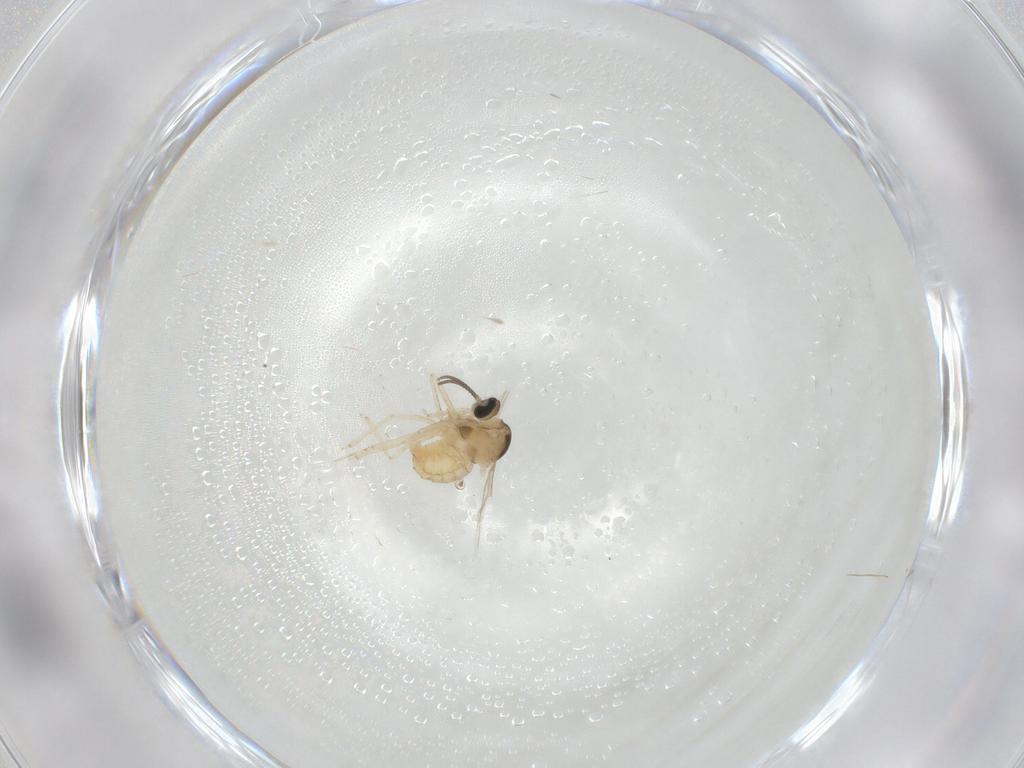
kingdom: Animalia
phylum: Arthropoda
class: Insecta
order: Diptera
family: Cecidomyiidae
